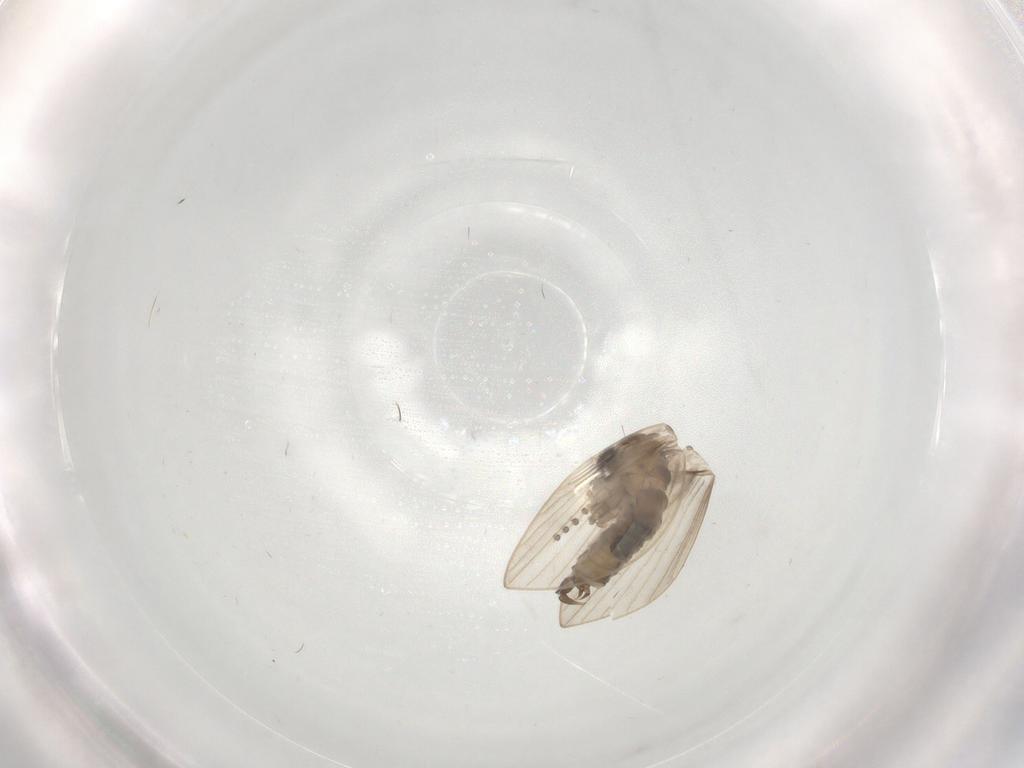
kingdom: Animalia
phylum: Arthropoda
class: Insecta
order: Diptera
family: Psychodidae
